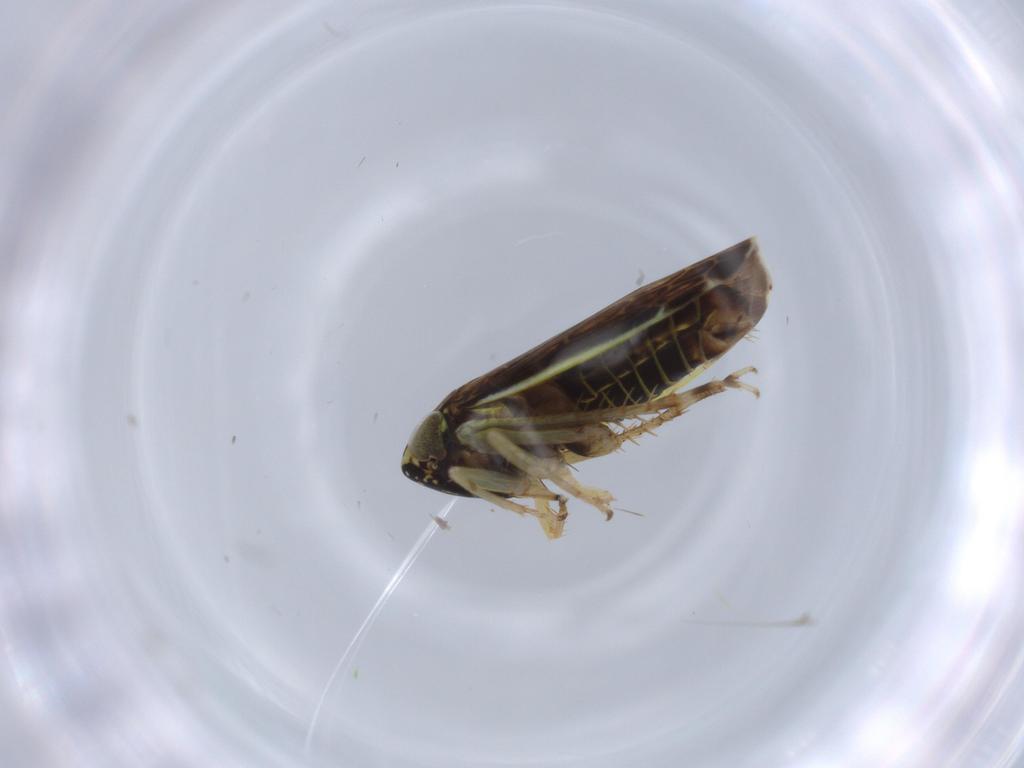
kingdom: Animalia
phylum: Arthropoda
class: Insecta
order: Hemiptera
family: Cicadellidae
